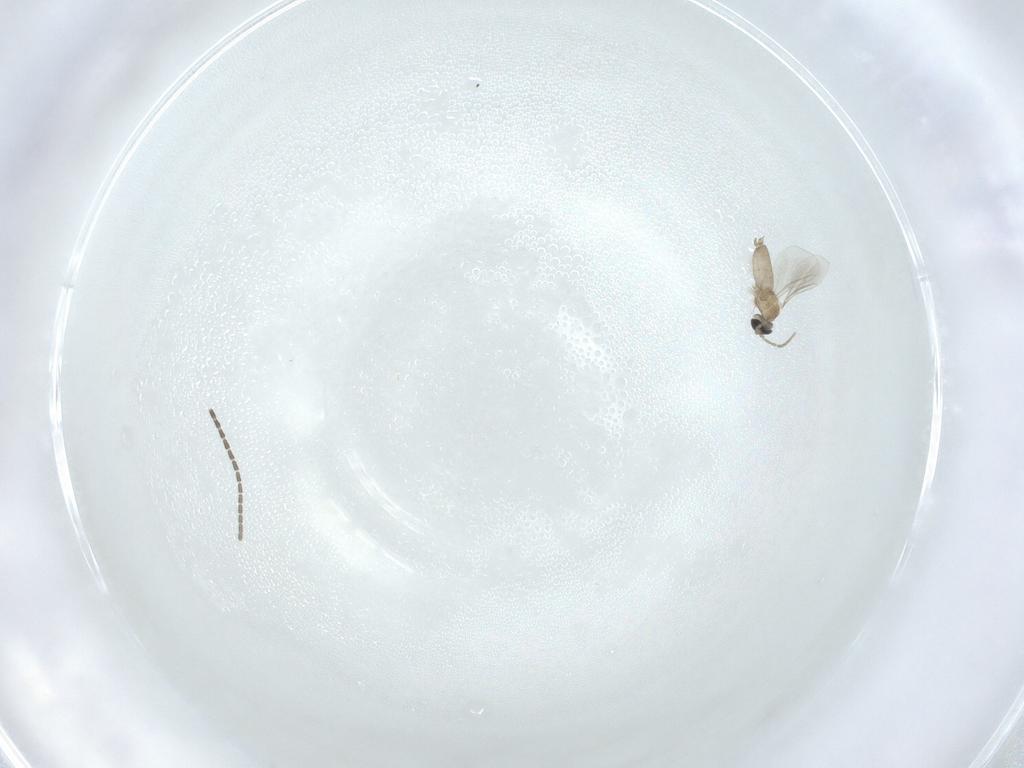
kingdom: Animalia
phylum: Arthropoda
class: Insecta
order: Diptera
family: Cecidomyiidae
